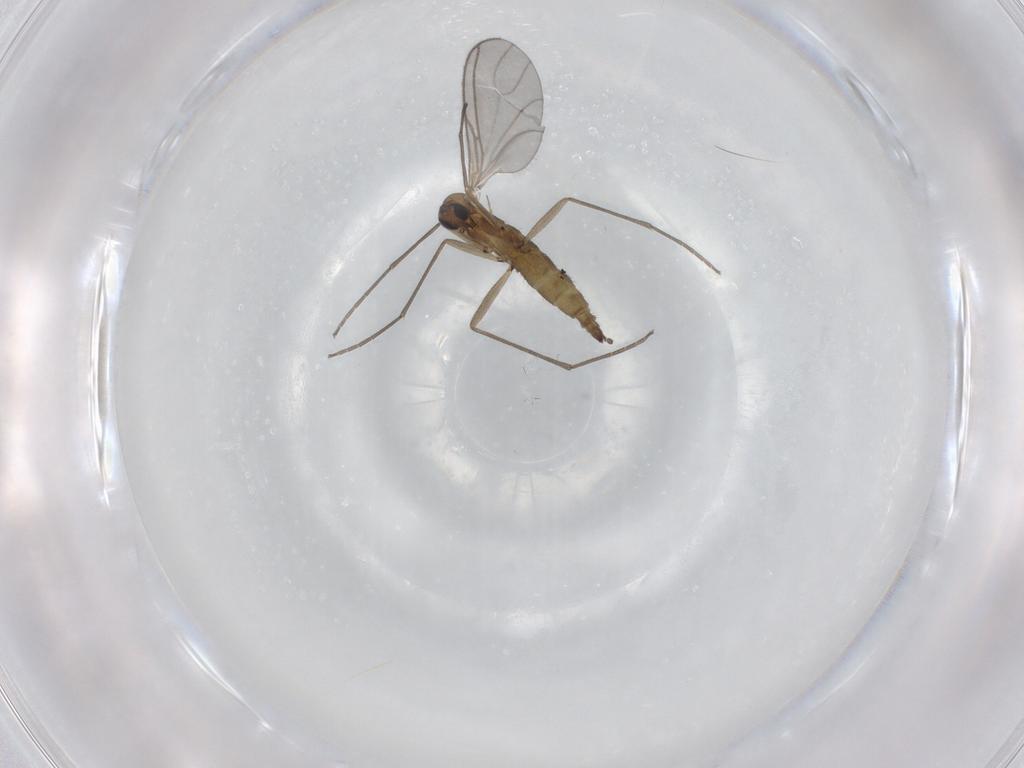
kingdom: Animalia
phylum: Arthropoda
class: Insecta
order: Diptera
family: Sciaridae
